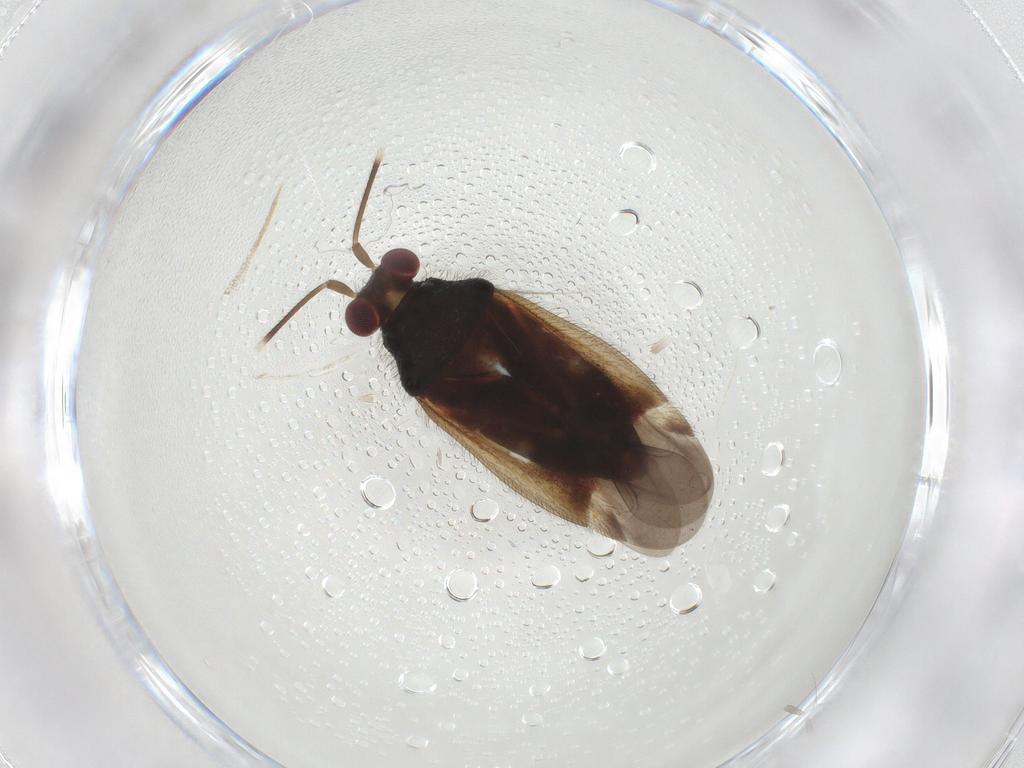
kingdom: Animalia
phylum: Arthropoda
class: Insecta
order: Hemiptera
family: Miridae
